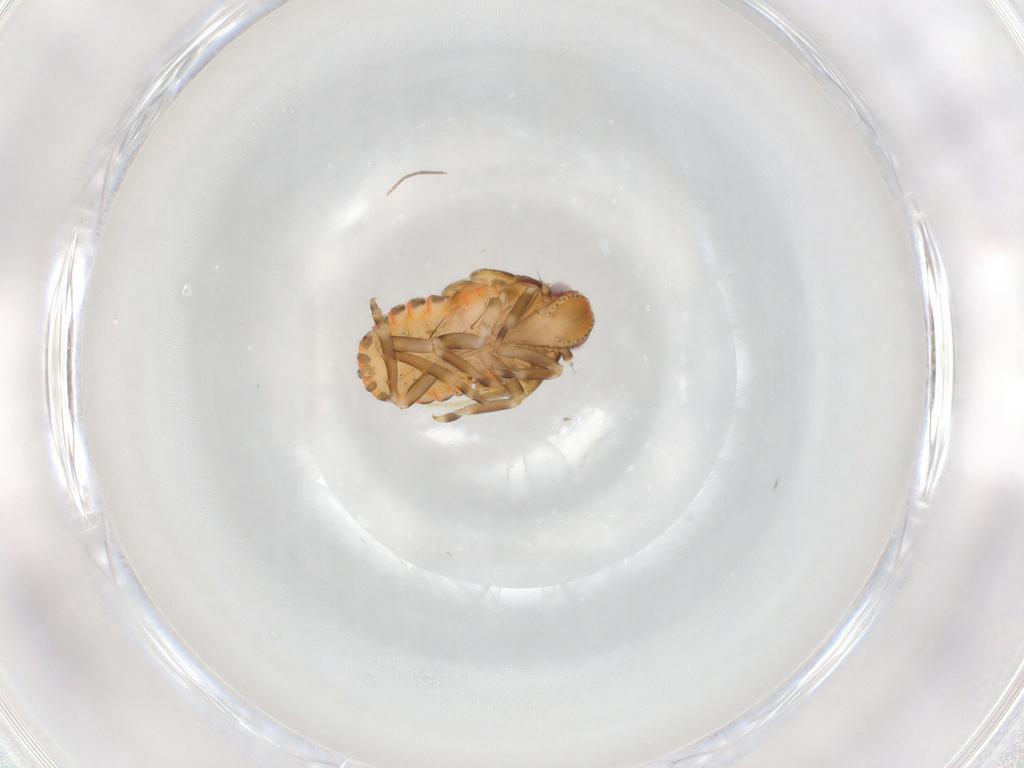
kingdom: Animalia
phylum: Arthropoda
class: Insecta
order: Hemiptera
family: Flatidae
